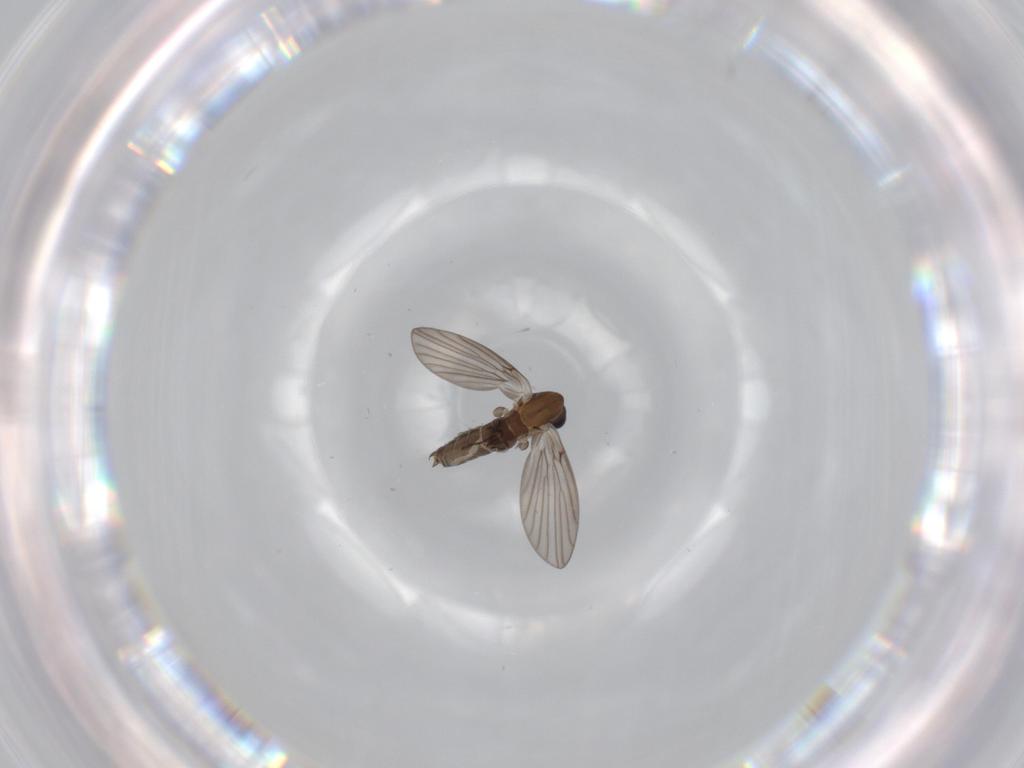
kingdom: Animalia
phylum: Arthropoda
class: Insecta
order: Diptera
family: Psychodidae
